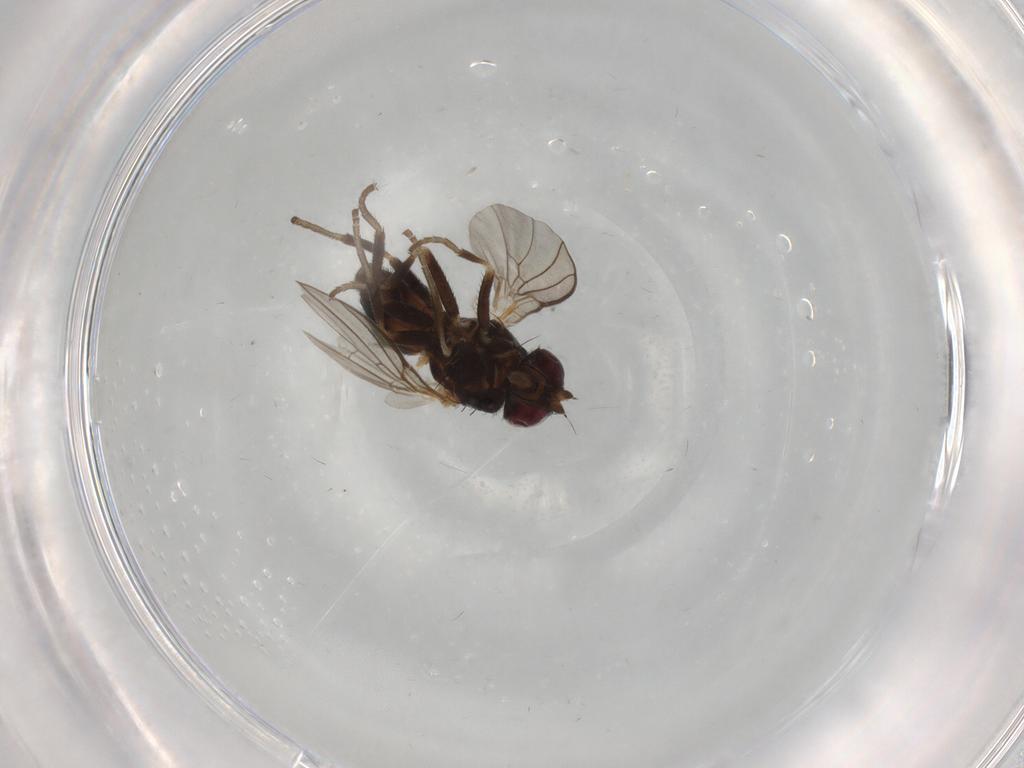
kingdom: Animalia
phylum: Arthropoda
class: Insecta
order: Diptera
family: Agromyzidae
